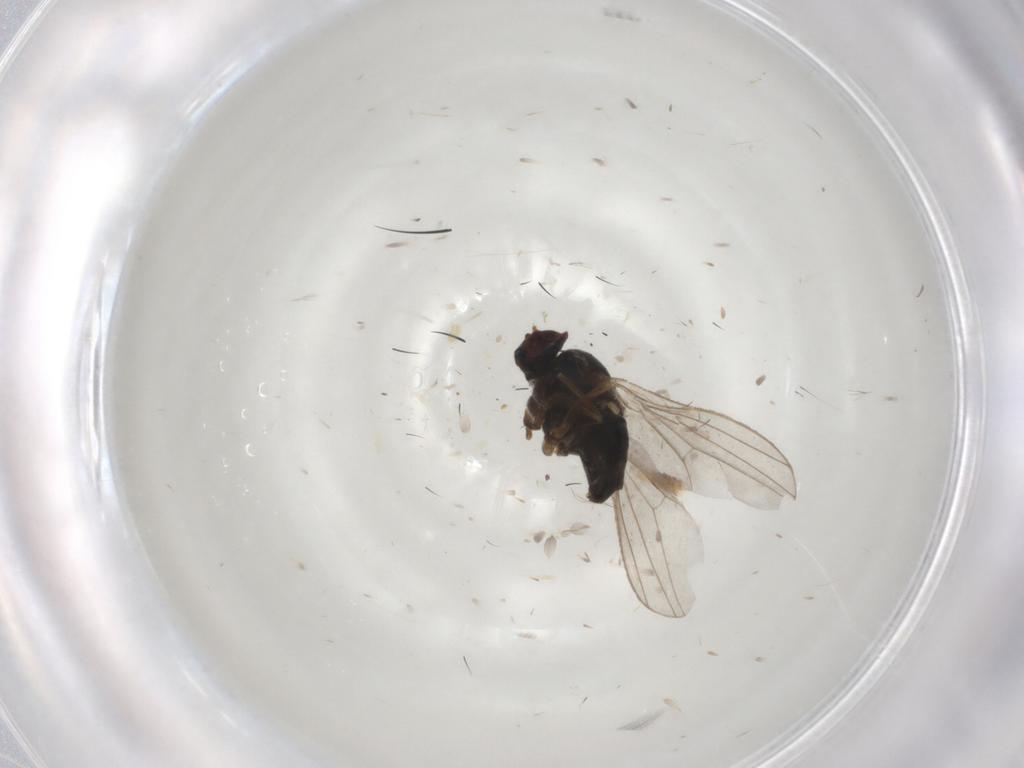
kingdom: Animalia
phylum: Arthropoda
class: Insecta
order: Diptera
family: Dolichopodidae
